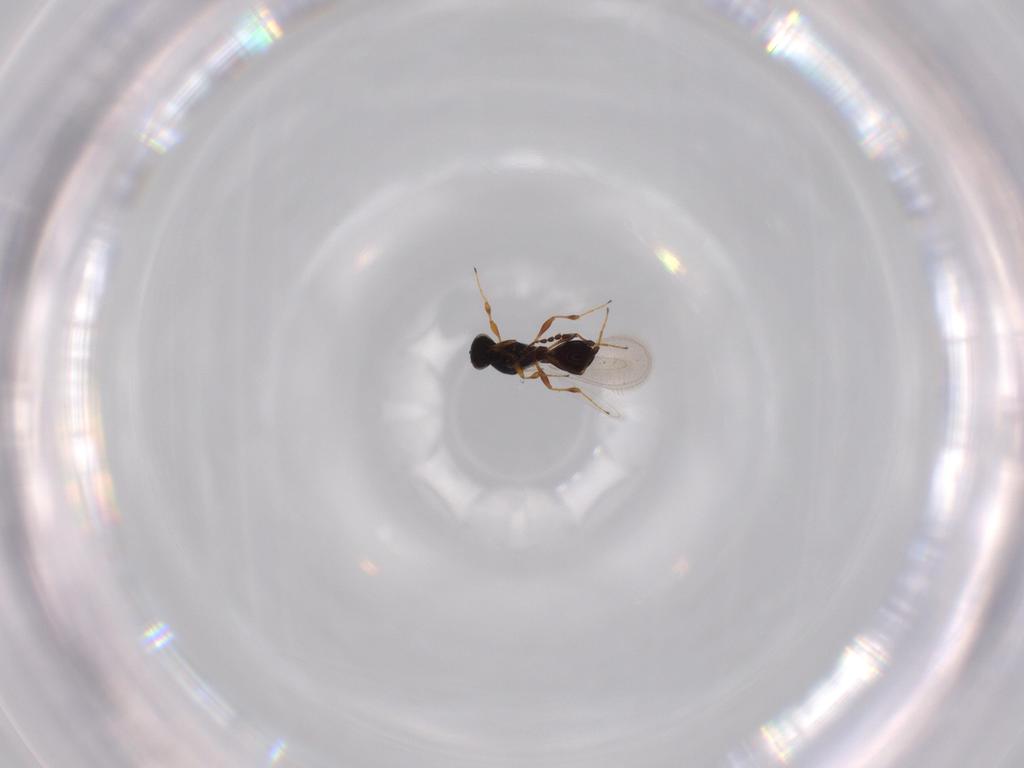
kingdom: Animalia
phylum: Arthropoda
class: Insecta
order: Hymenoptera
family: Platygastridae
